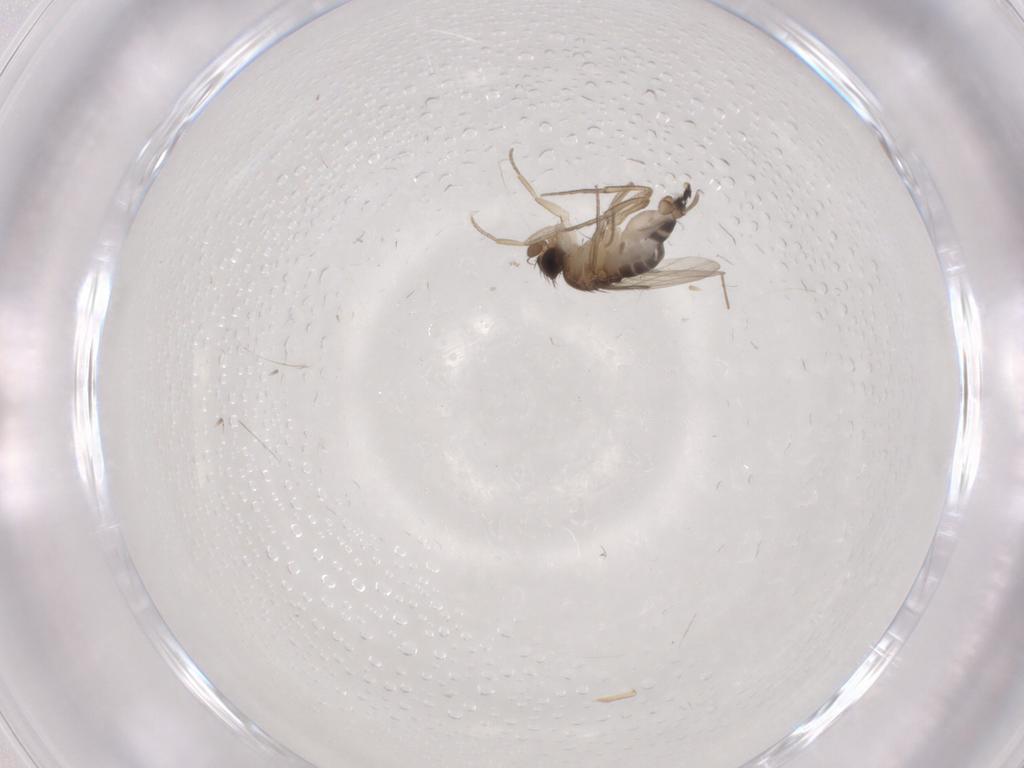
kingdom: Animalia
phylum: Arthropoda
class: Insecta
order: Diptera
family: Phoridae
